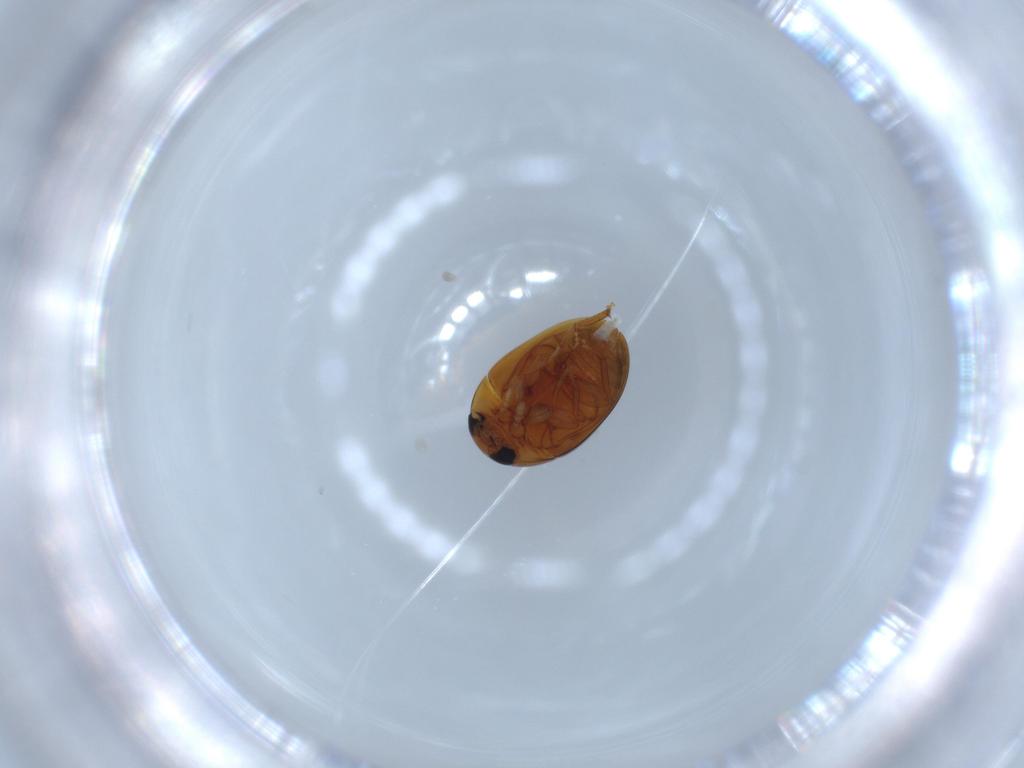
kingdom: Animalia
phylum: Arthropoda
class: Insecta
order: Coleoptera
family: Phalacridae
